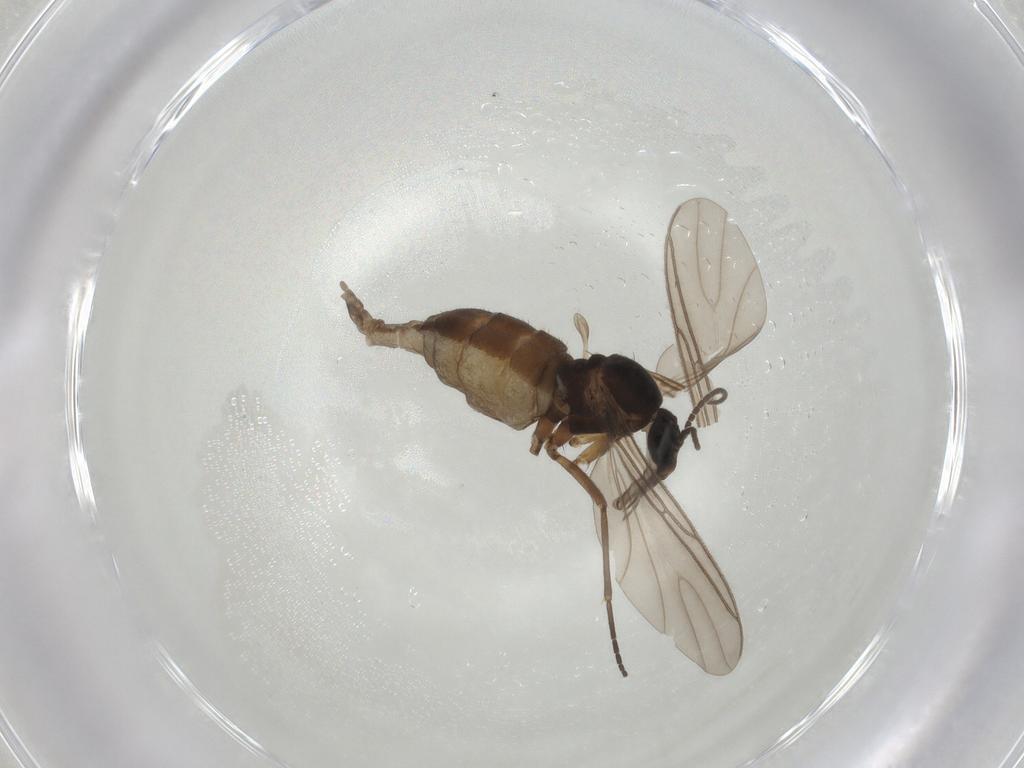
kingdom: Animalia
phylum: Arthropoda
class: Insecta
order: Diptera
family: Sciaridae
